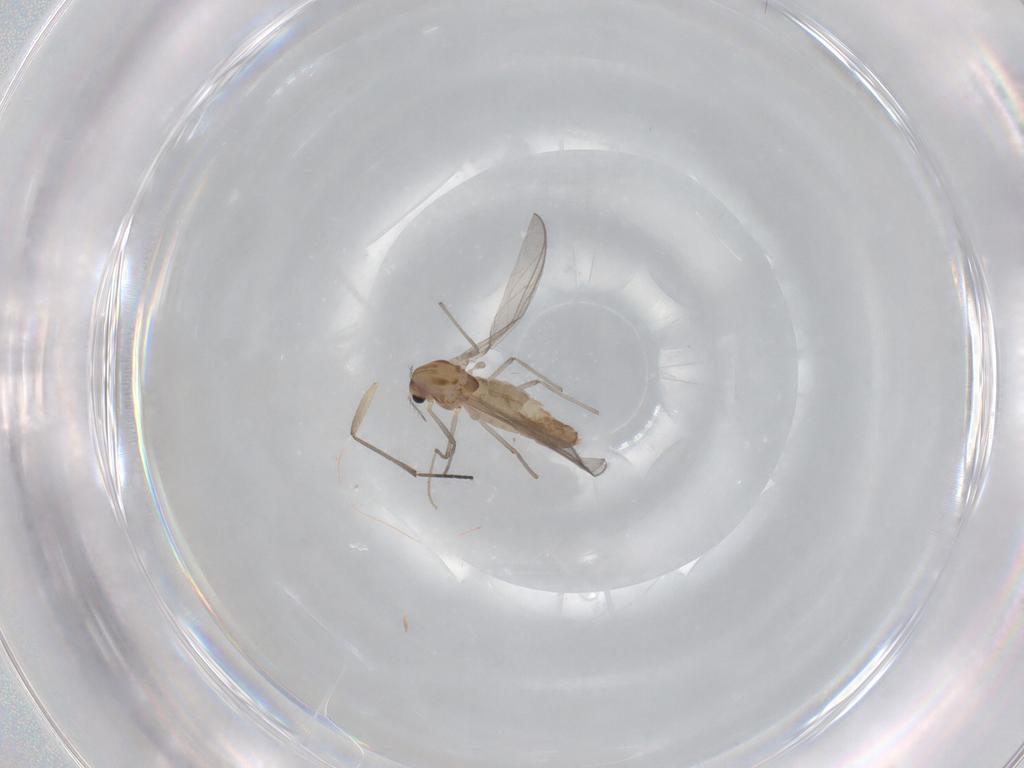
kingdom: Animalia
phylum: Arthropoda
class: Insecta
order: Diptera
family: Chironomidae
